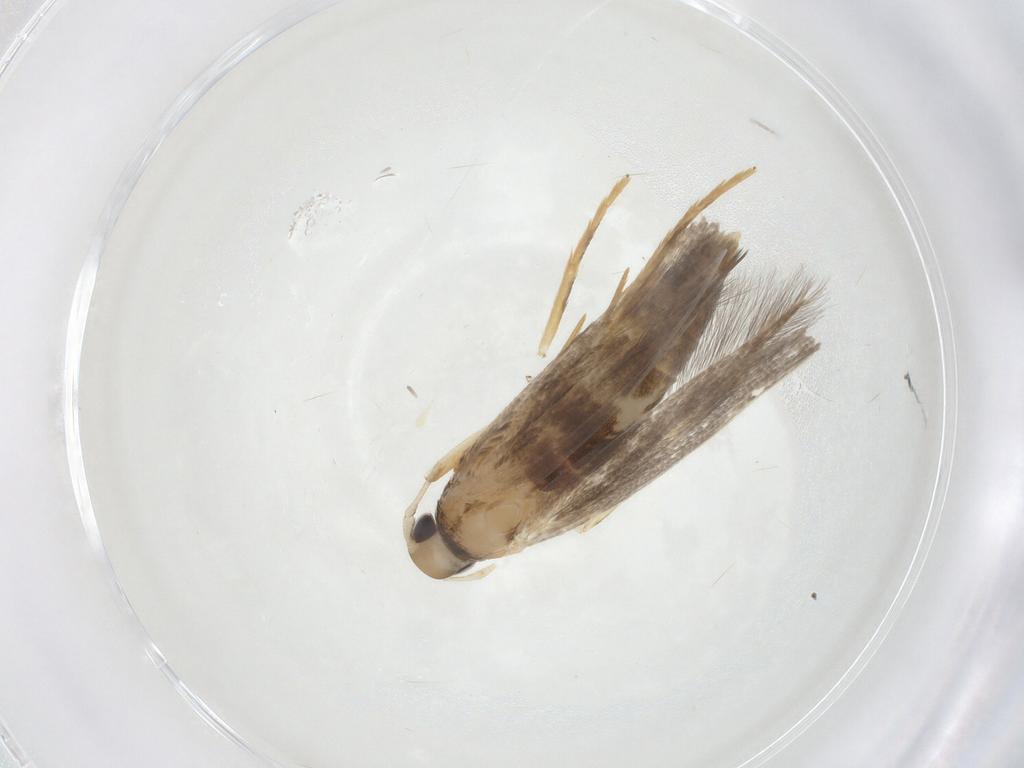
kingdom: Animalia
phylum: Arthropoda
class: Insecta
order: Lepidoptera
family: Cosmopterigidae
